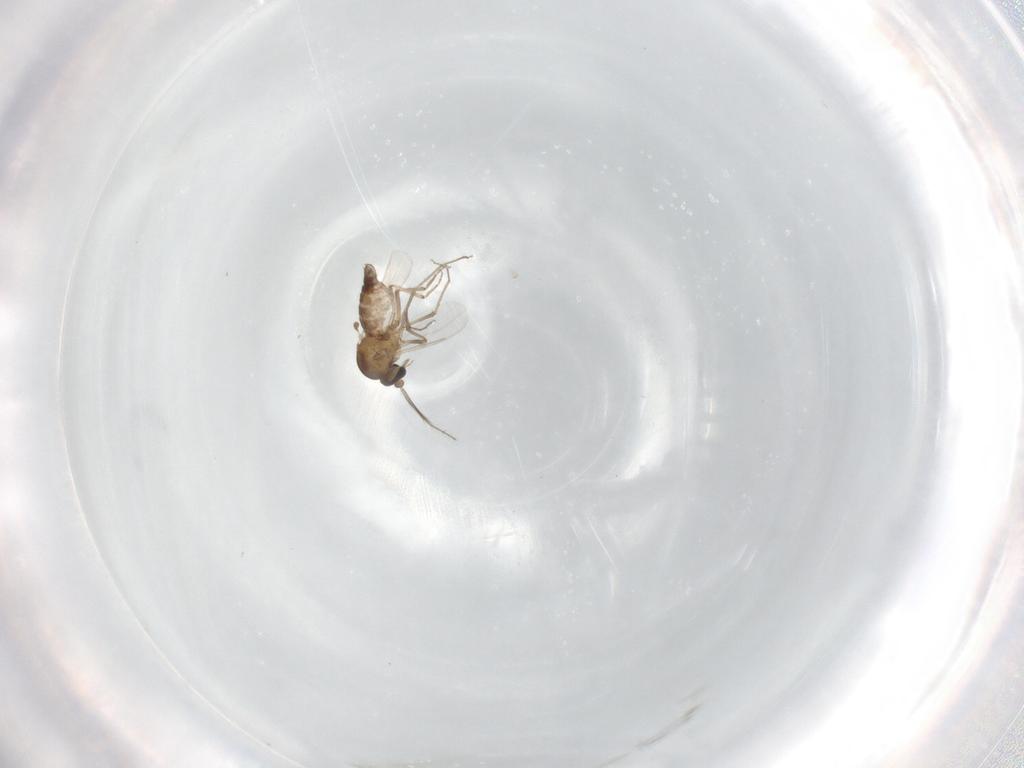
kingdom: Animalia
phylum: Arthropoda
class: Insecta
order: Diptera
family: Ceratopogonidae
